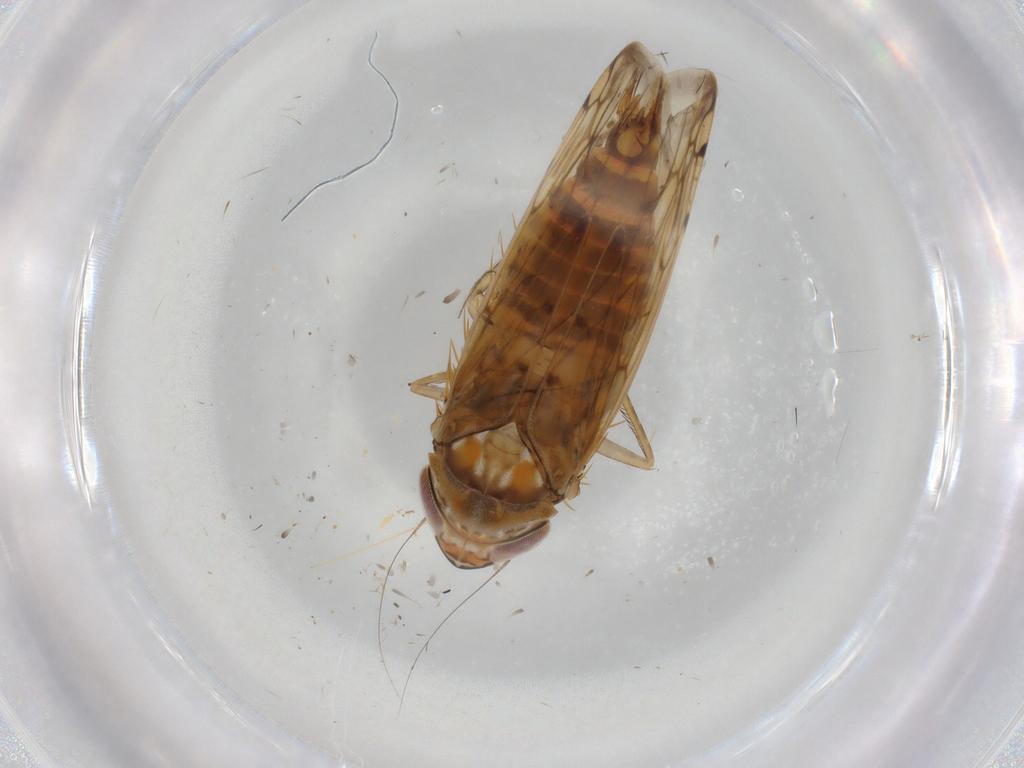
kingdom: Animalia
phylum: Arthropoda
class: Insecta
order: Hemiptera
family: Cicadellidae
